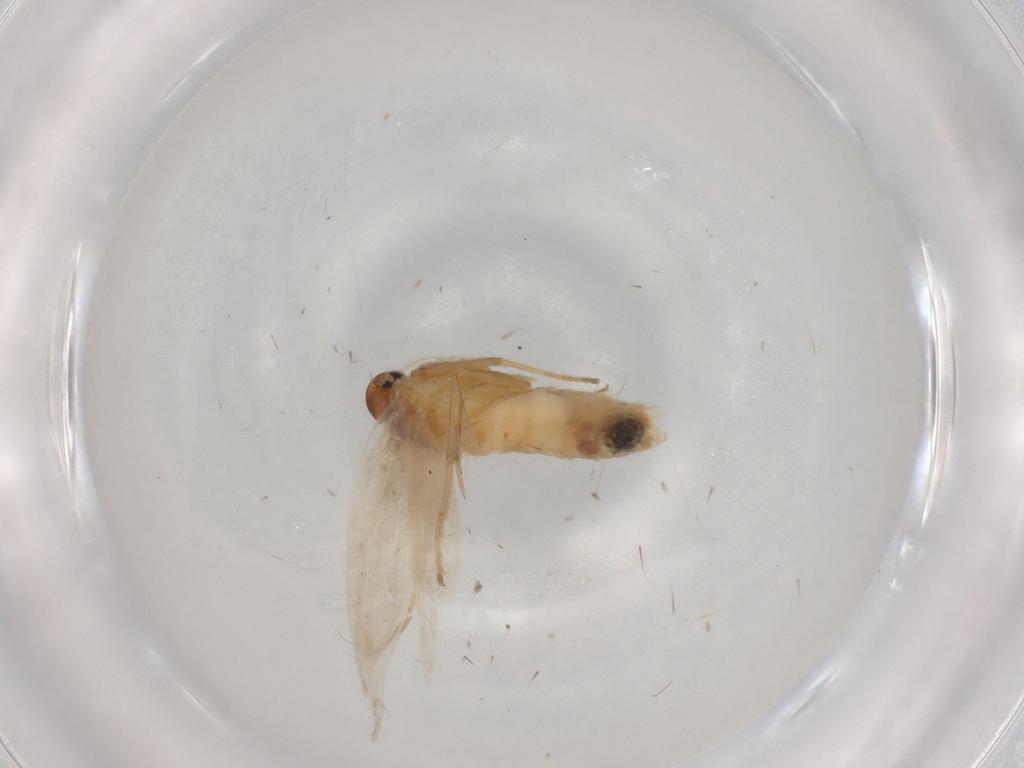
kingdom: Animalia
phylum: Arthropoda
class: Insecta
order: Lepidoptera
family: Gelechiidae
